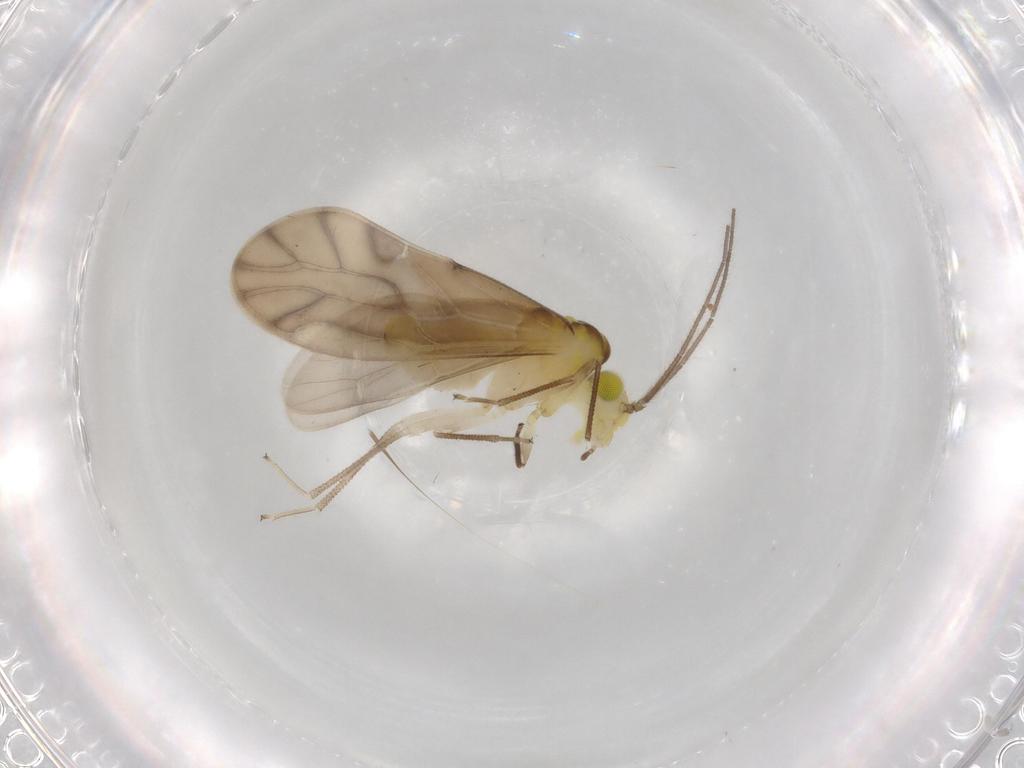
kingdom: Animalia
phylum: Arthropoda
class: Insecta
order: Psocodea
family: Caeciliusidae
